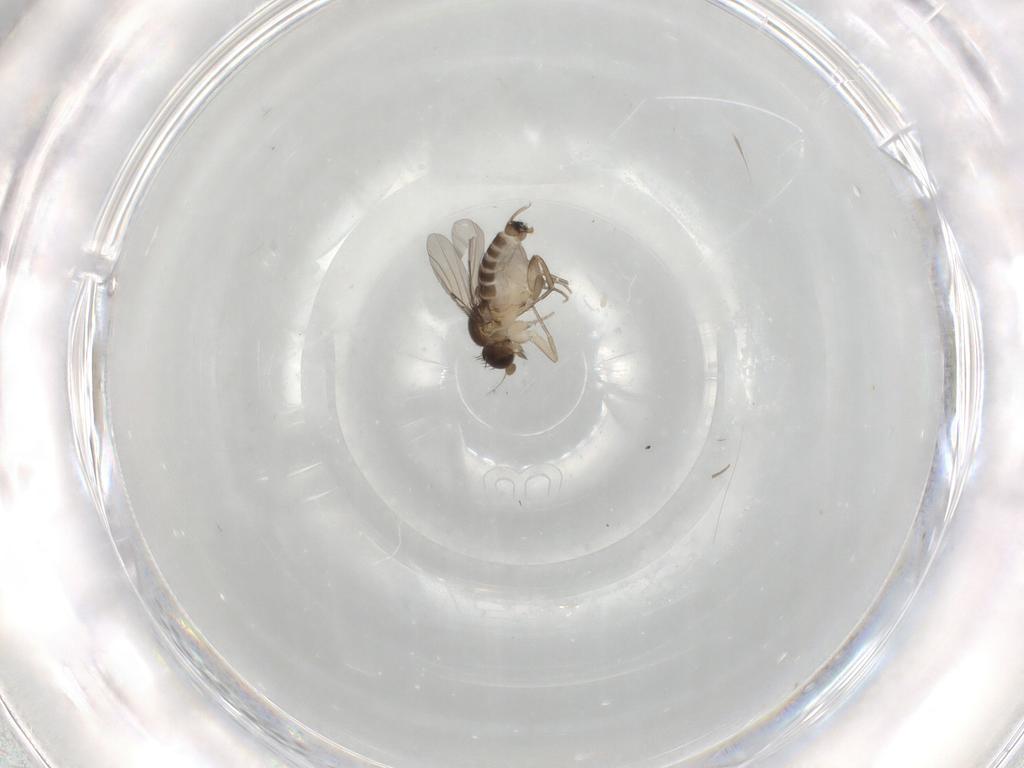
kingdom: Animalia
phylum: Arthropoda
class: Insecta
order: Diptera
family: Phoridae
